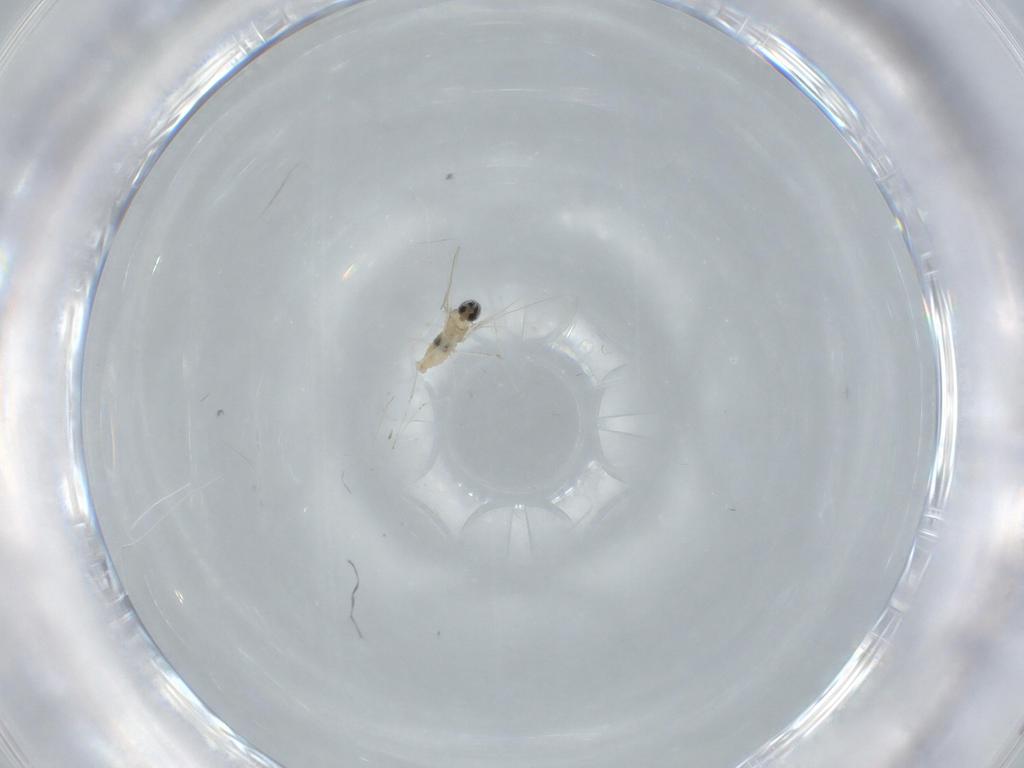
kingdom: Animalia
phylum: Arthropoda
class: Insecta
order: Diptera
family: Cecidomyiidae
